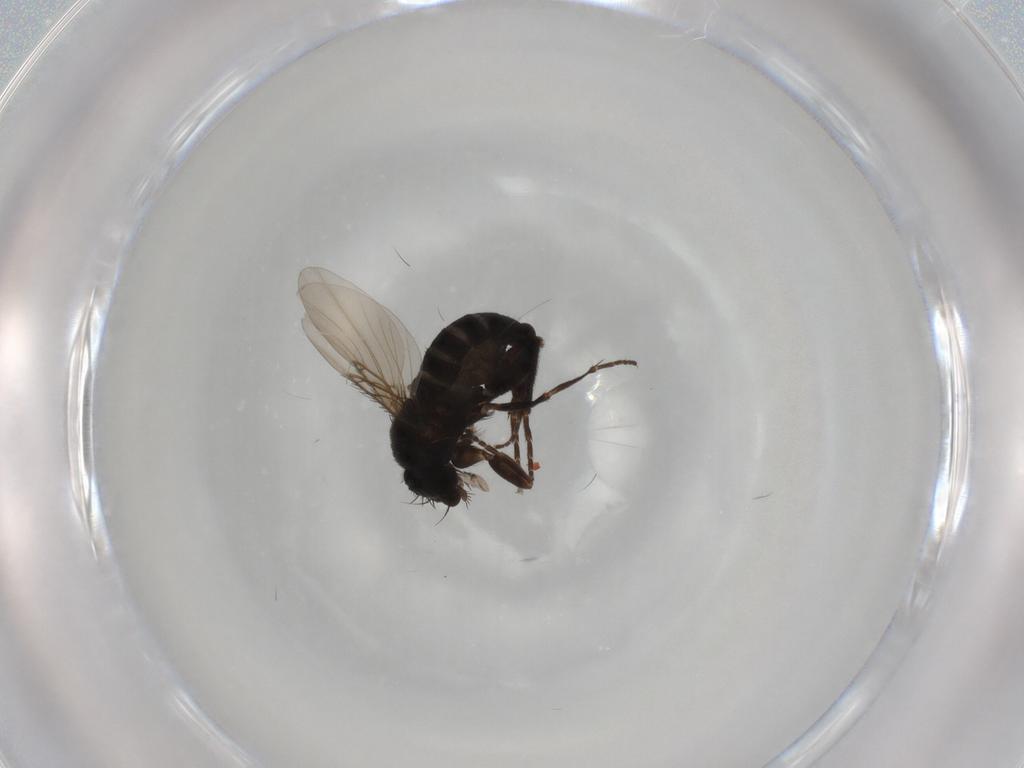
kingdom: Animalia
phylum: Arthropoda
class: Insecta
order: Diptera
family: Phoridae
